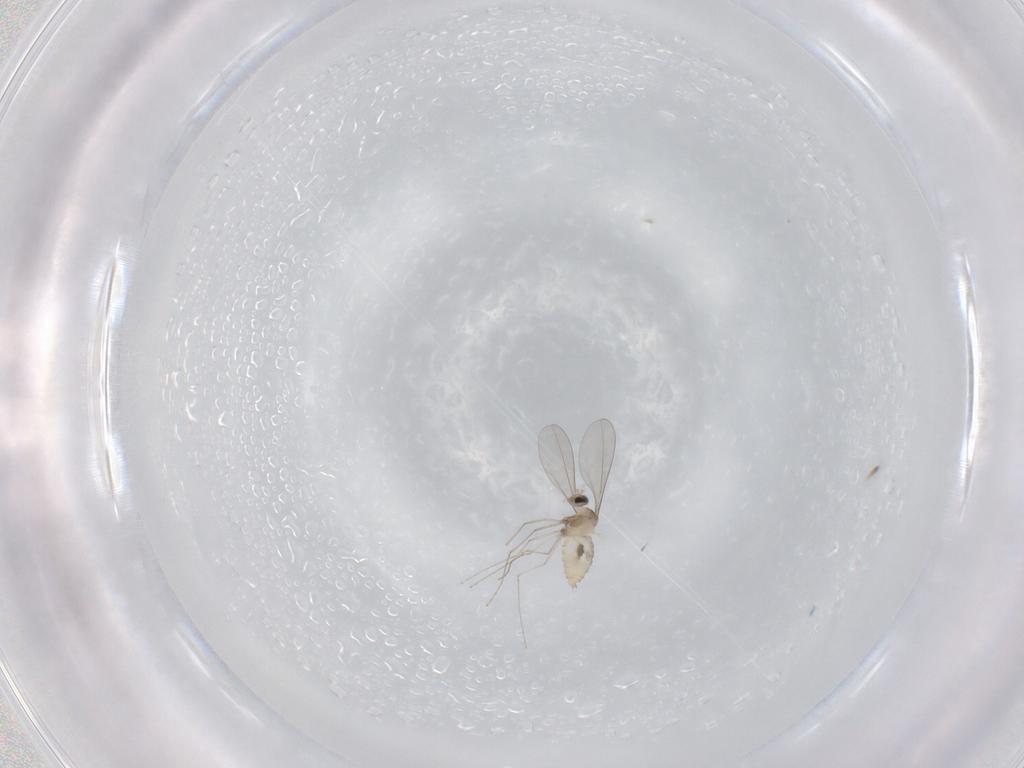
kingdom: Animalia
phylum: Arthropoda
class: Insecta
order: Diptera
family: Cecidomyiidae
